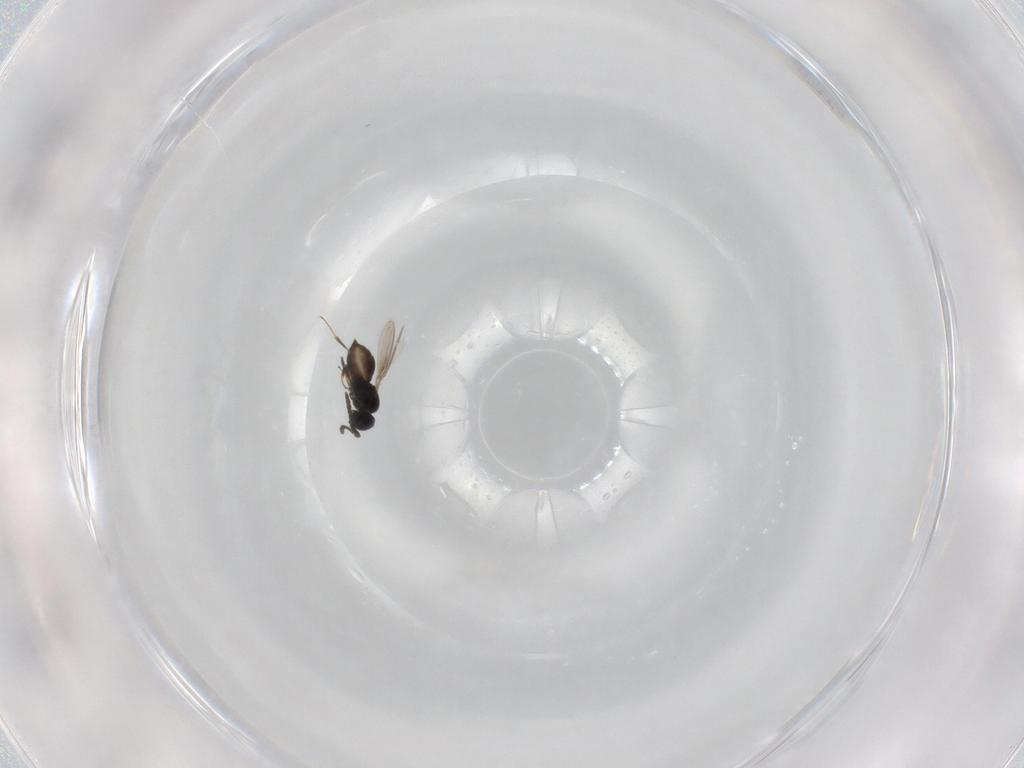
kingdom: Animalia
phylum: Arthropoda
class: Insecta
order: Hymenoptera
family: Scelionidae
